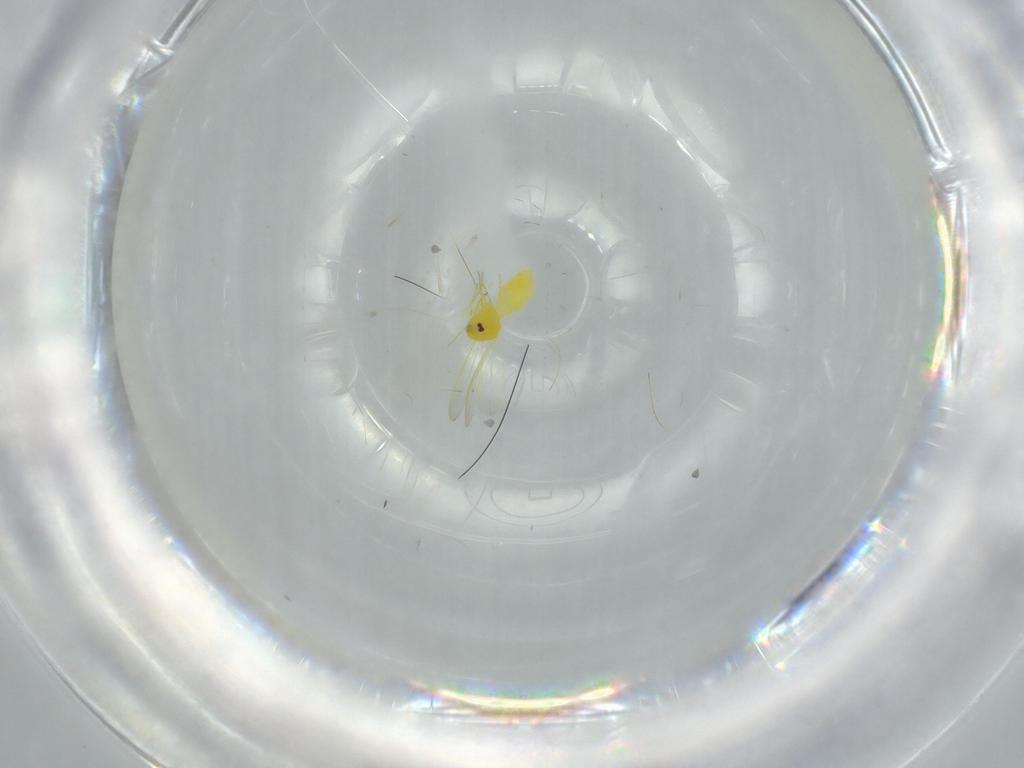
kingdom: Animalia
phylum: Arthropoda
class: Insecta
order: Hemiptera
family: Aleyrodidae
